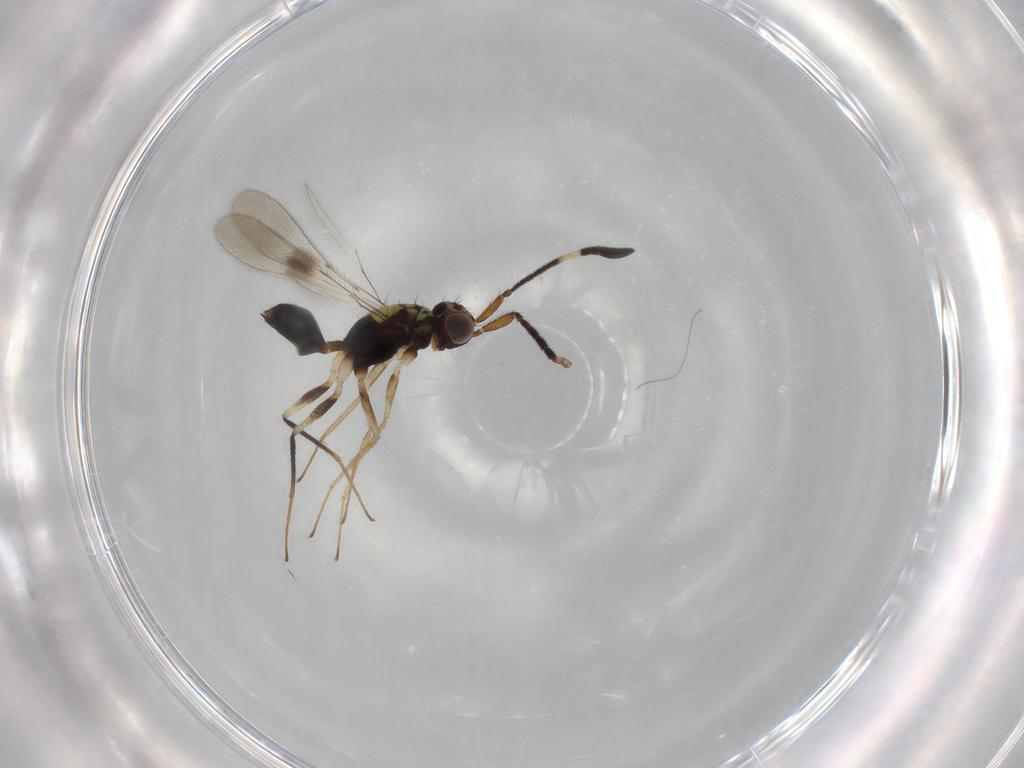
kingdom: Animalia
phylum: Arthropoda
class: Insecta
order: Hymenoptera
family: Mymaridae
